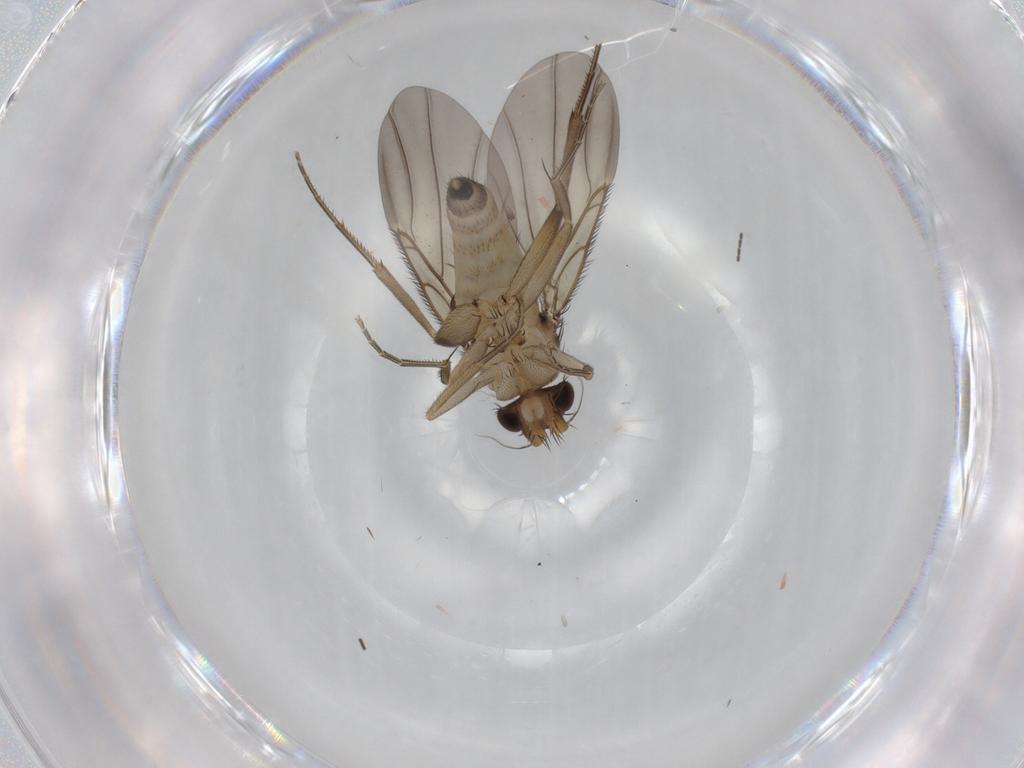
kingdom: Animalia
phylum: Arthropoda
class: Insecta
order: Diptera
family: Phoridae
